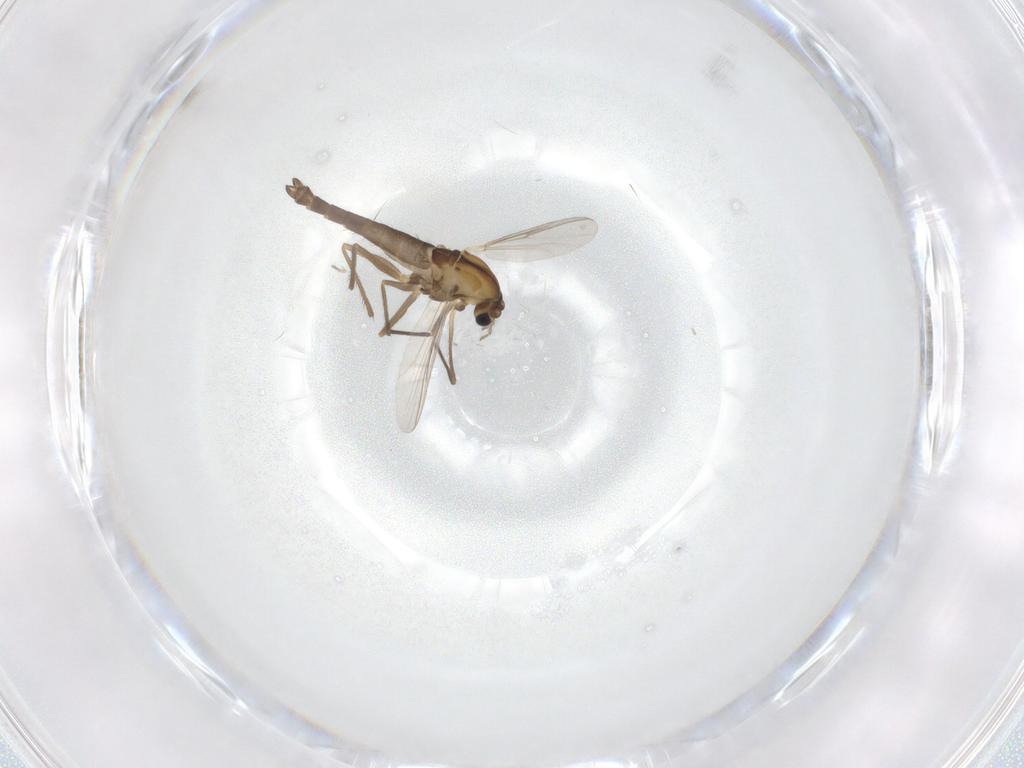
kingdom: Animalia
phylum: Arthropoda
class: Insecta
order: Diptera
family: Chironomidae
